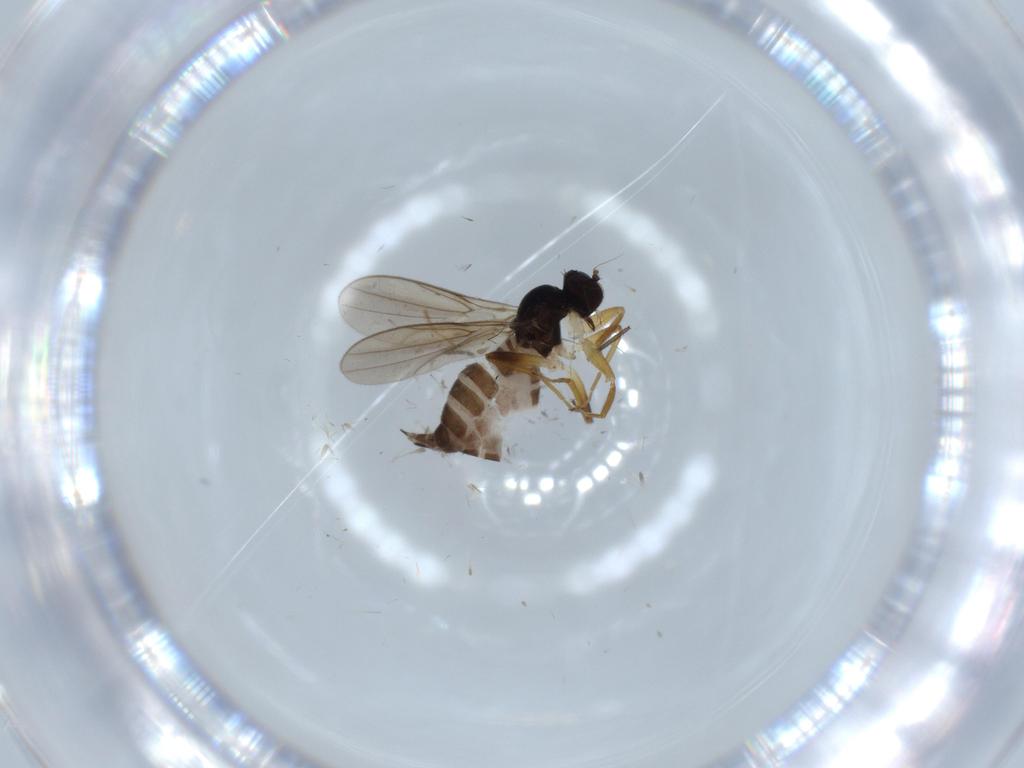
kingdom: Animalia
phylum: Arthropoda
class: Insecta
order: Diptera
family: Hybotidae
